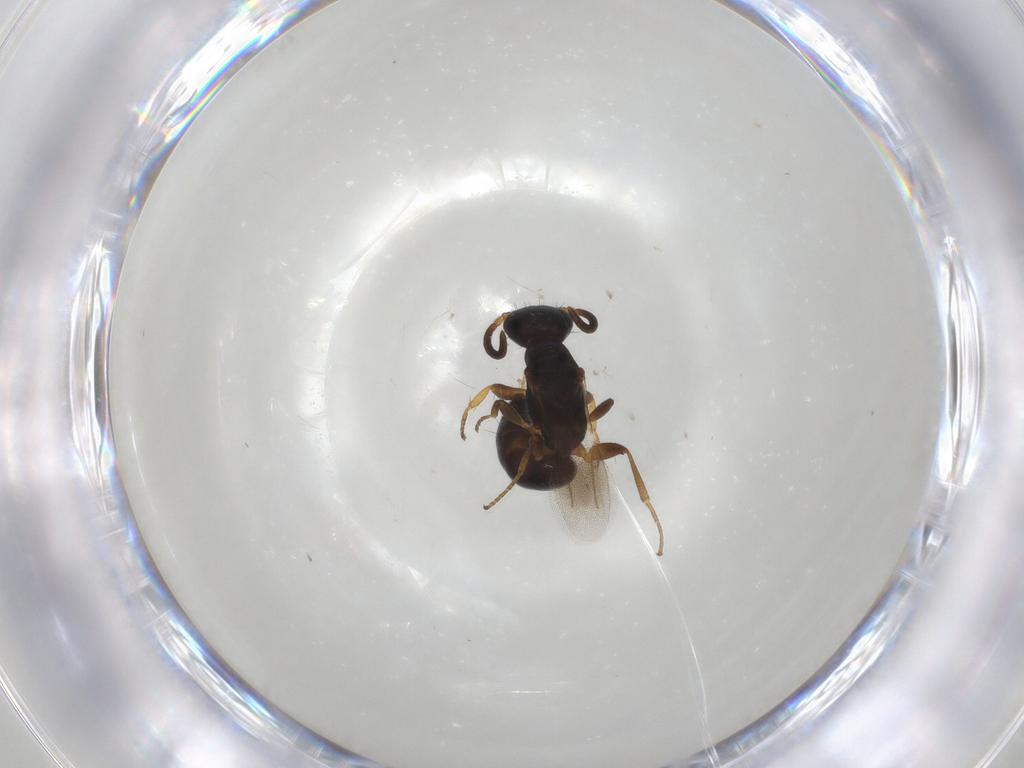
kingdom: Animalia
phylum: Arthropoda
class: Insecta
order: Hymenoptera
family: Bethylidae
